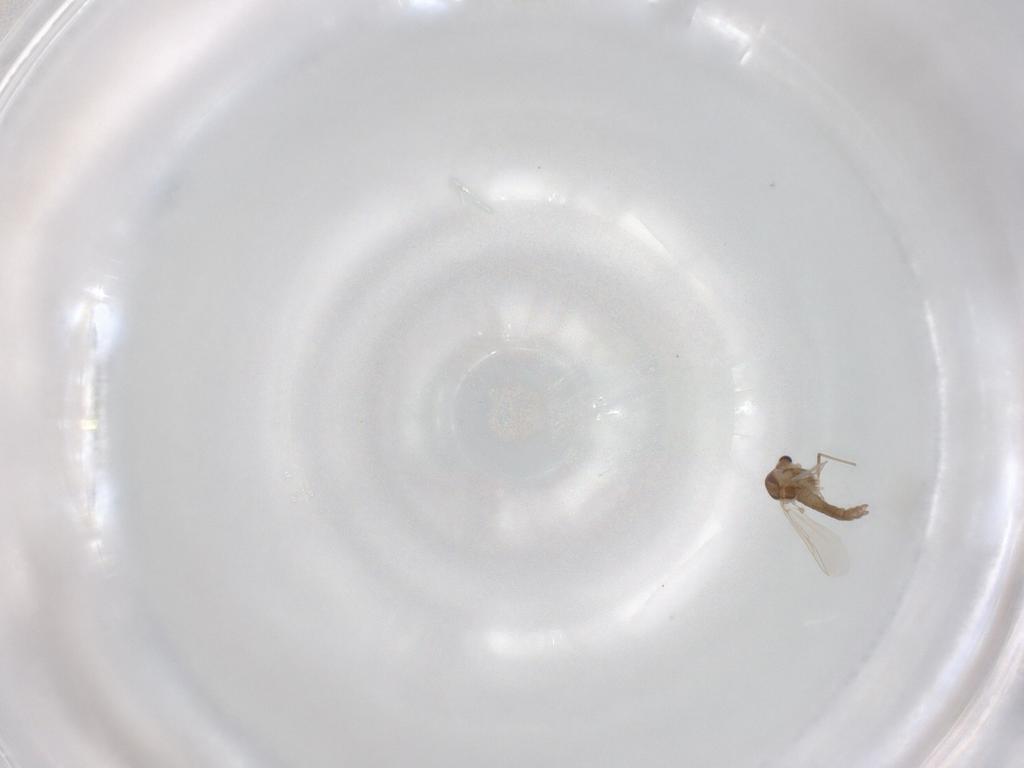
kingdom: Animalia
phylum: Arthropoda
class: Insecta
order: Diptera
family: Chironomidae
